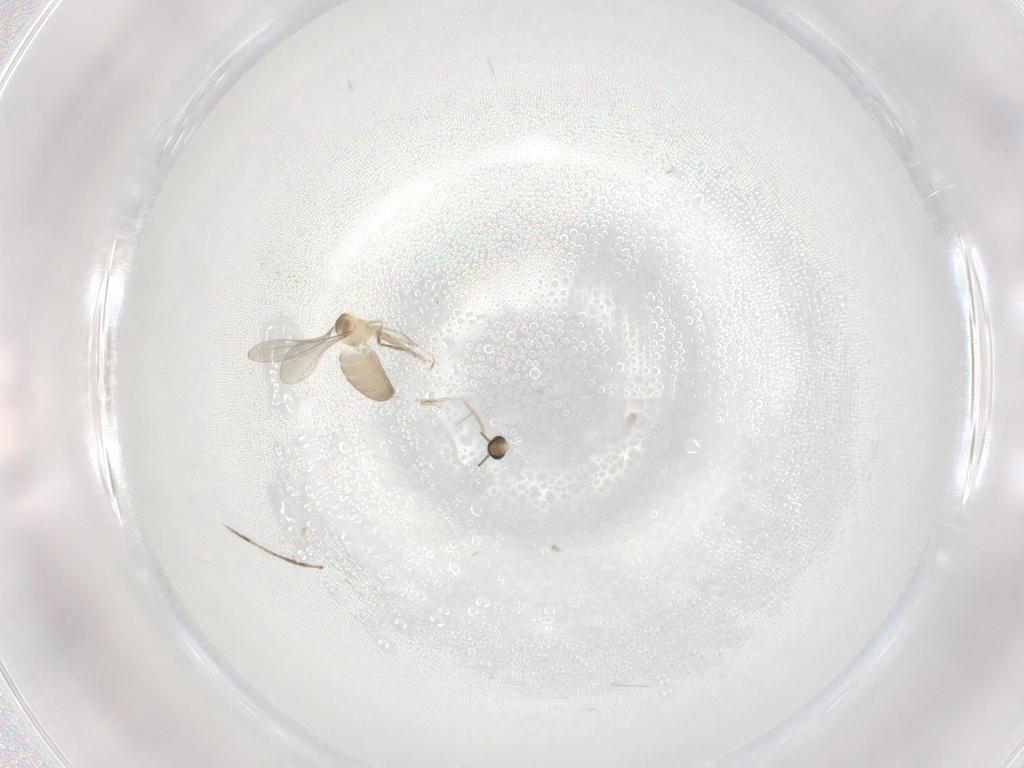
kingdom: Animalia
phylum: Arthropoda
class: Insecta
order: Diptera
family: Cecidomyiidae
